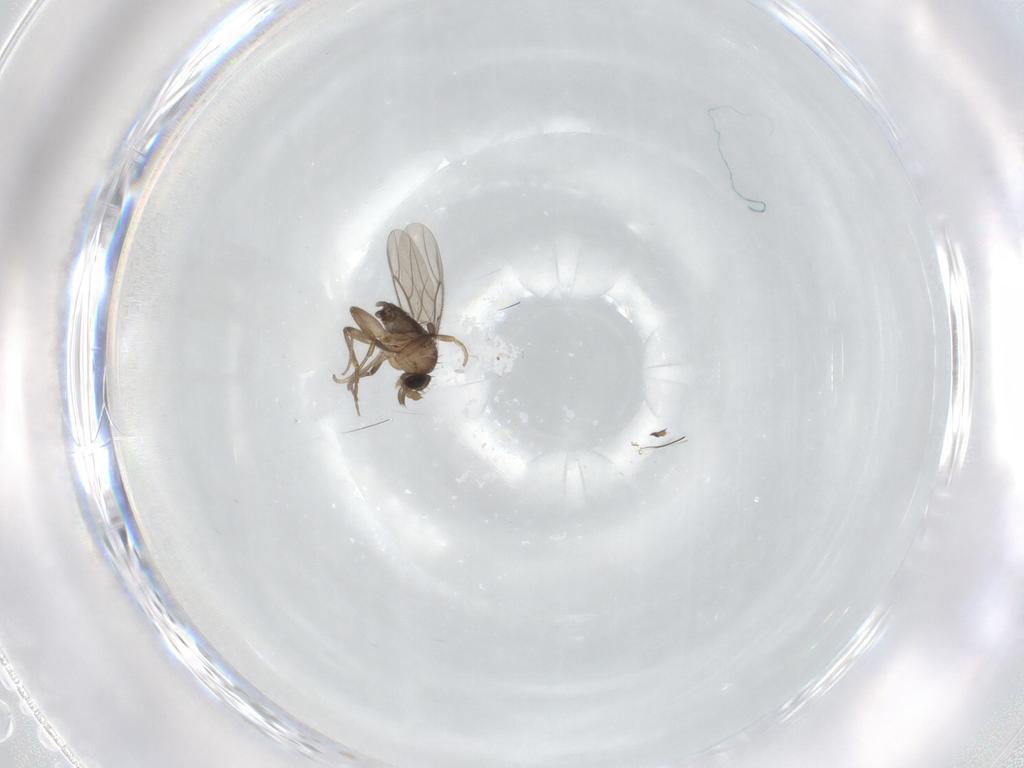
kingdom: Animalia
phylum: Arthropoda
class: Insecta
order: Diptera
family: Phoridae
